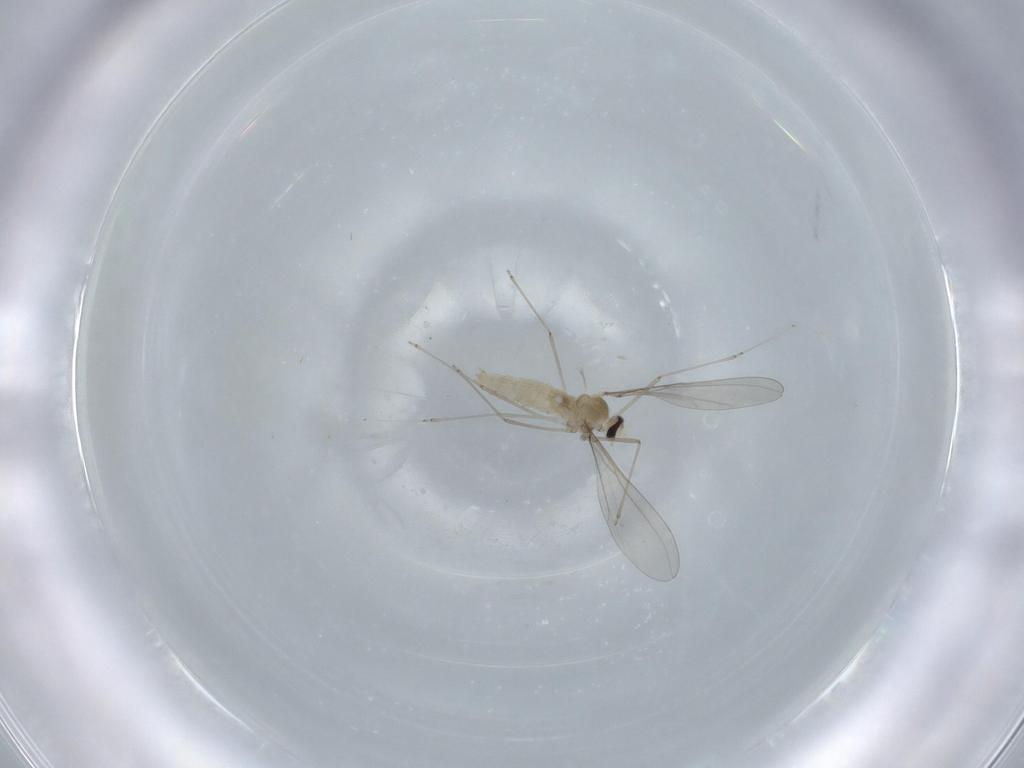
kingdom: Animalia
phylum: Arthropoda
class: Insecta
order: Diptera
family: Cecidomyiidae
